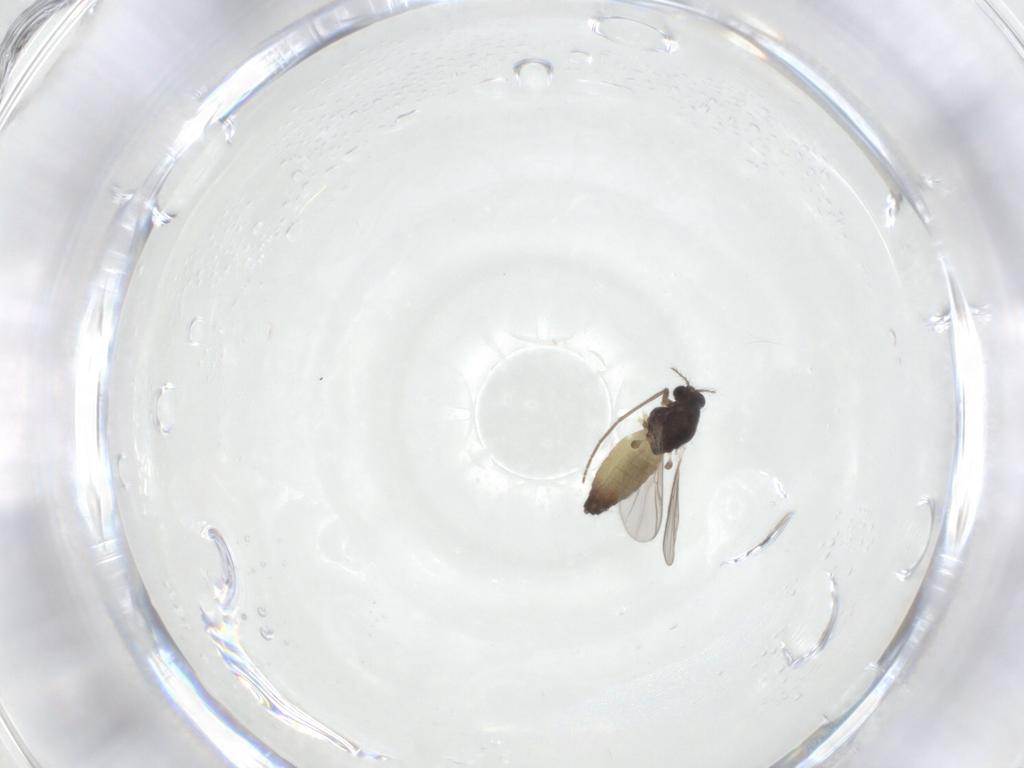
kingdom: Animalia
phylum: Arthropoda
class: Insecta
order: Diptera
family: Chironomidae
